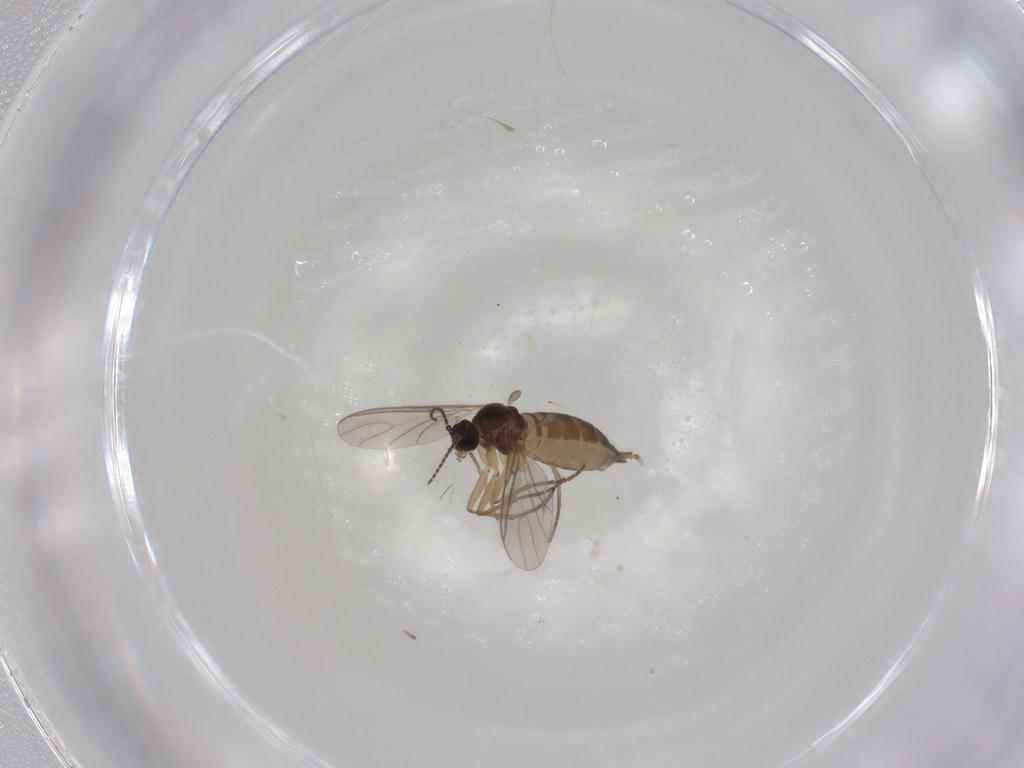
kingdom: Animalia
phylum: Arthropoda
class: Insecta
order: Diptera
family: Sciaridae
